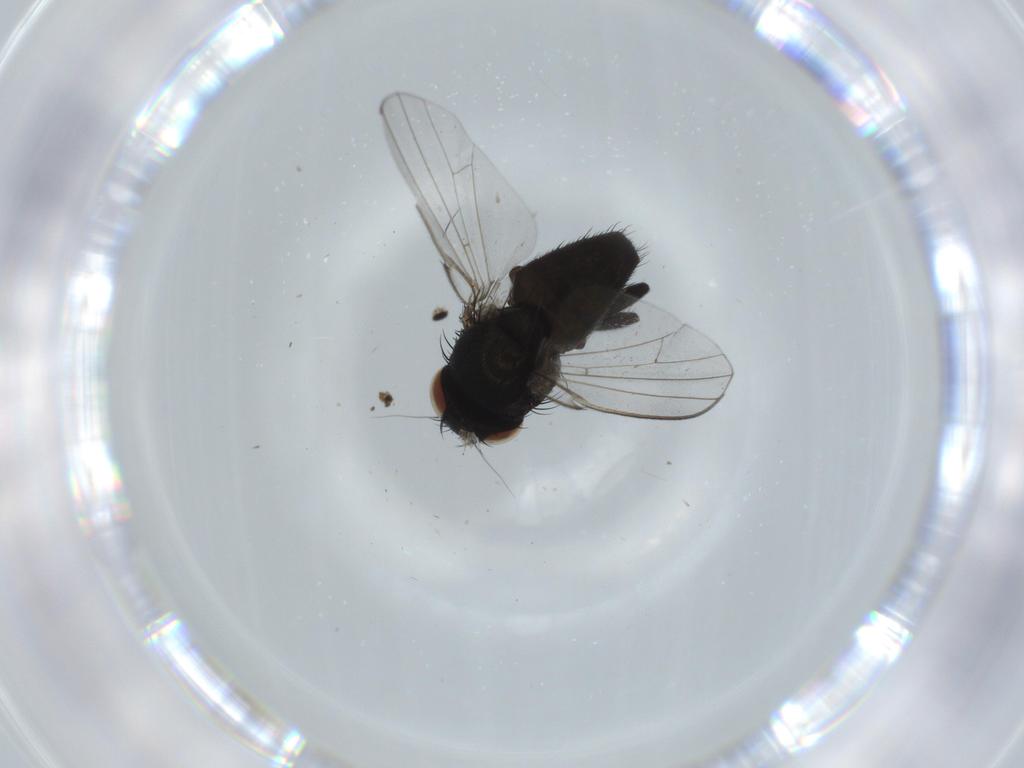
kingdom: Animalia
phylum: Arthropoda
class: Insecta
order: Diptera
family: Milichiidae
